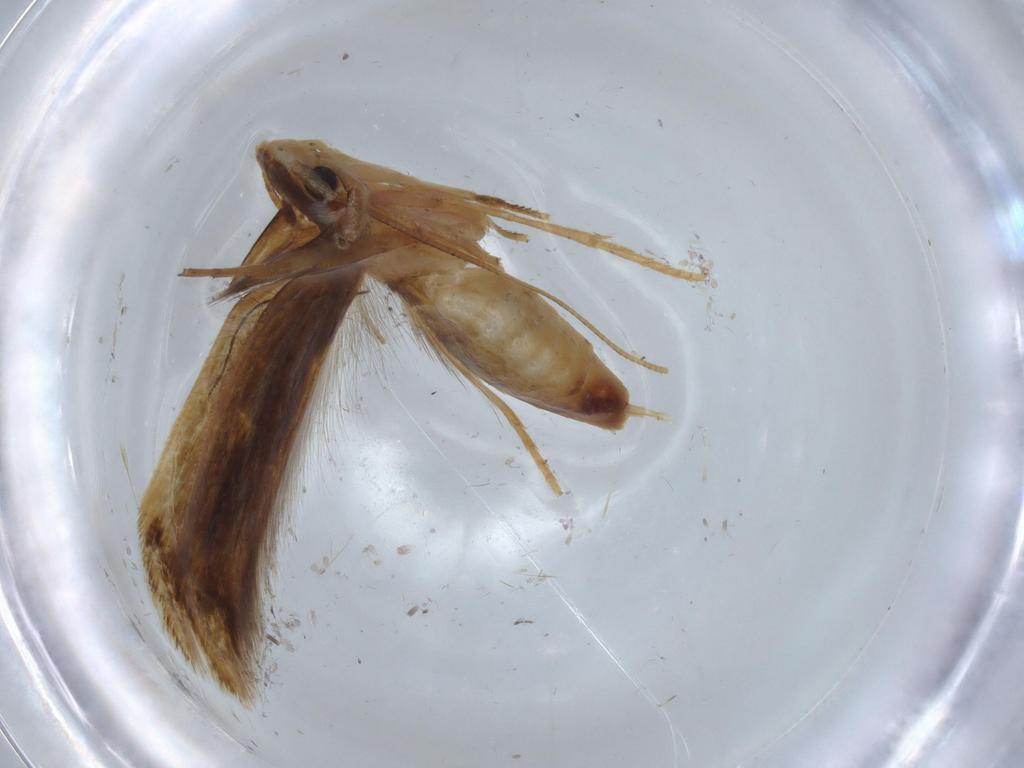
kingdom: Animalia
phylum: Arthropoda
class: Insecta
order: Lepidoptera
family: Tineidae
